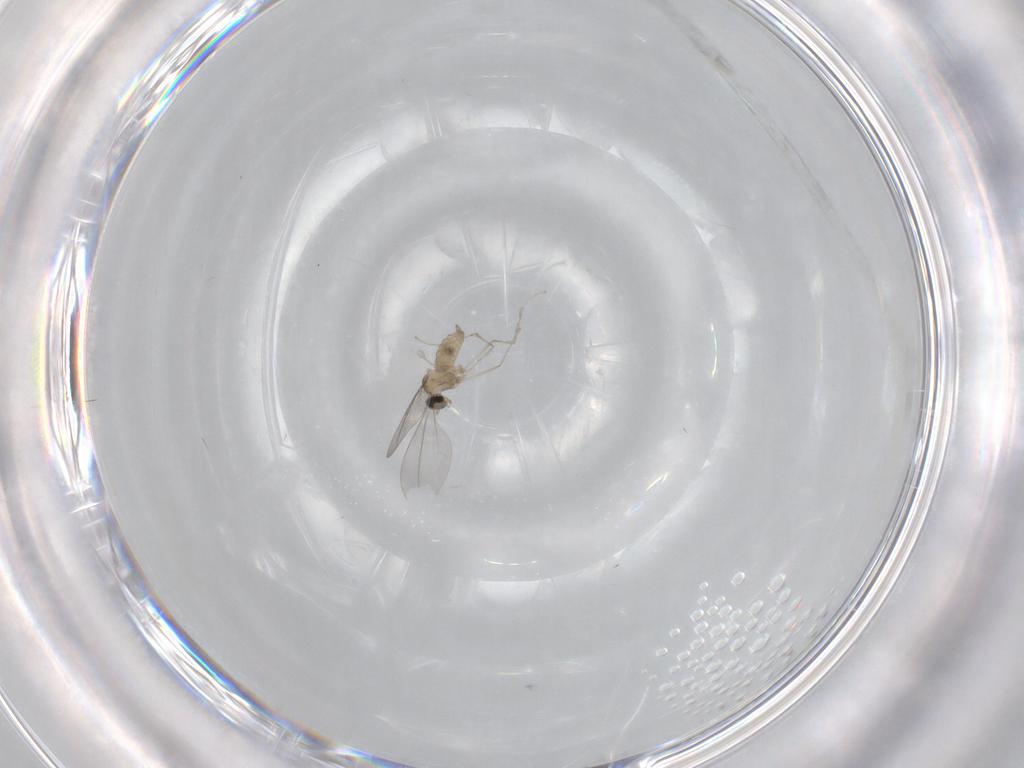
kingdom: Animalia
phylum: Arthropoda
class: Insecta
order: Diptera
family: Cecidomyiidae
